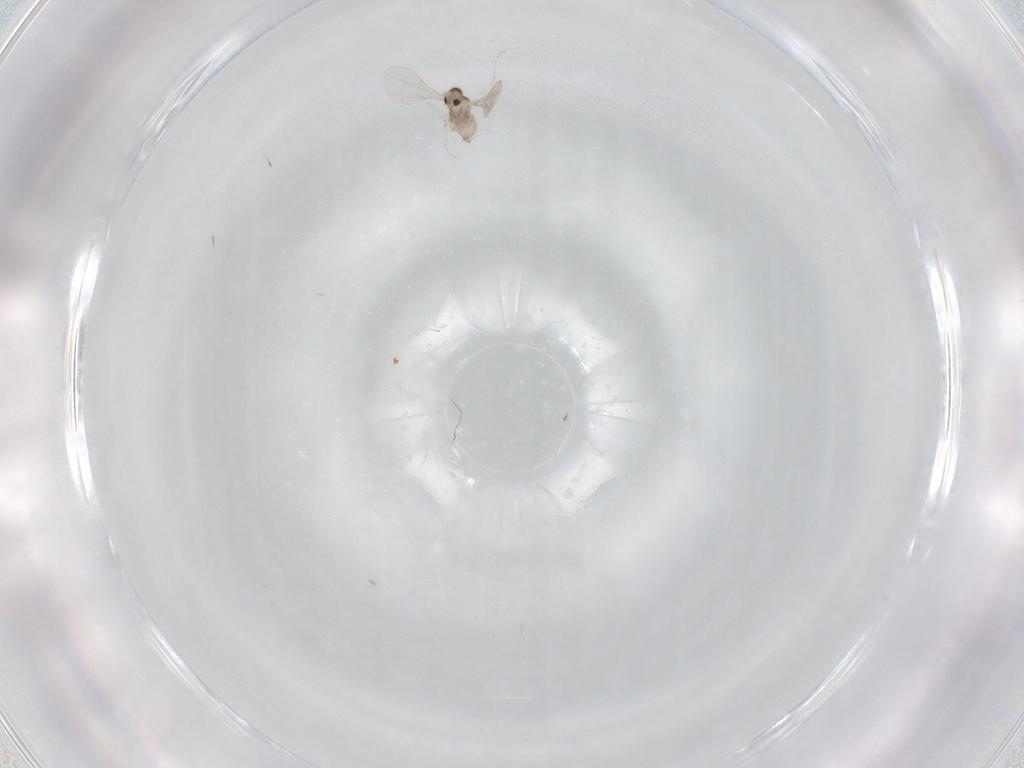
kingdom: Animalia
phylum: Arthropoda
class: Insecta
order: Diptera
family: Cecidomyiidae
